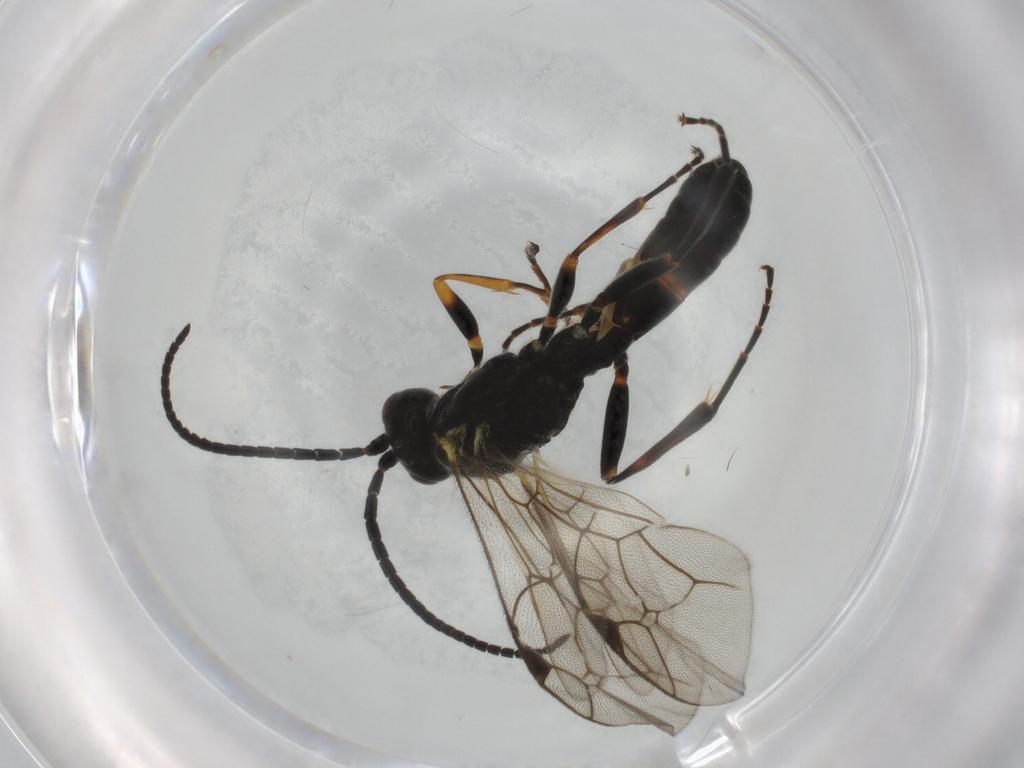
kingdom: Animalia
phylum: Arthropoda
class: Insecta
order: Hymenoptera
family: Ichneumonidae
